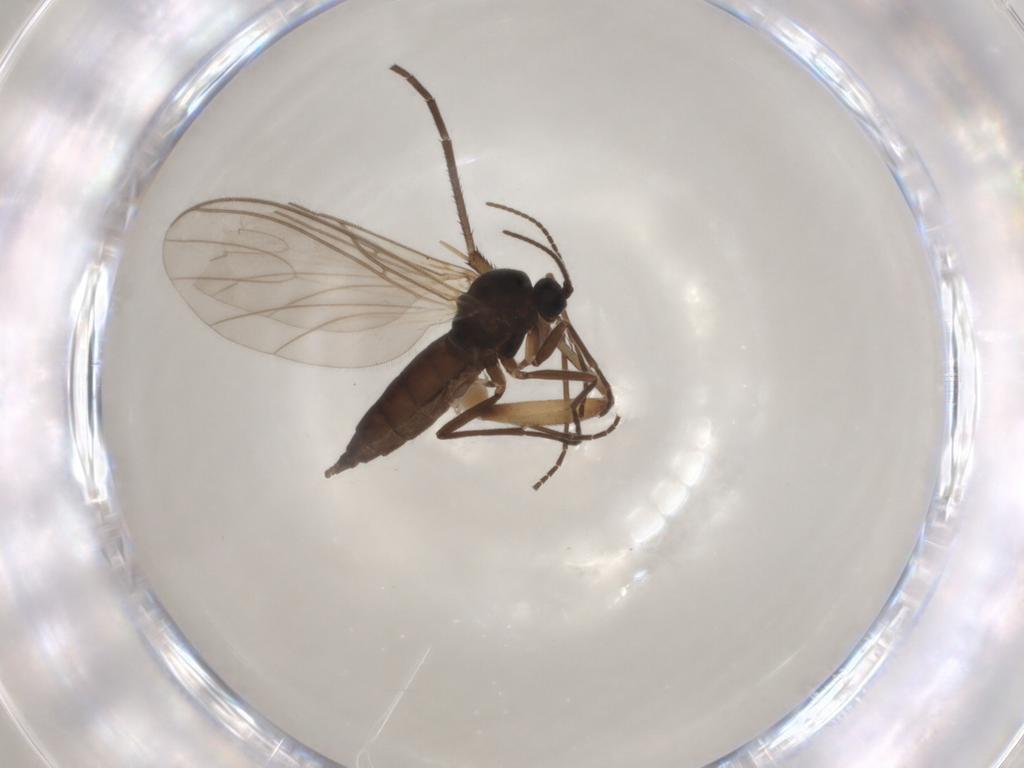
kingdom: Animalia
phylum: Arthropoda
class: Insecta
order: Diptera
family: Sciaridae
